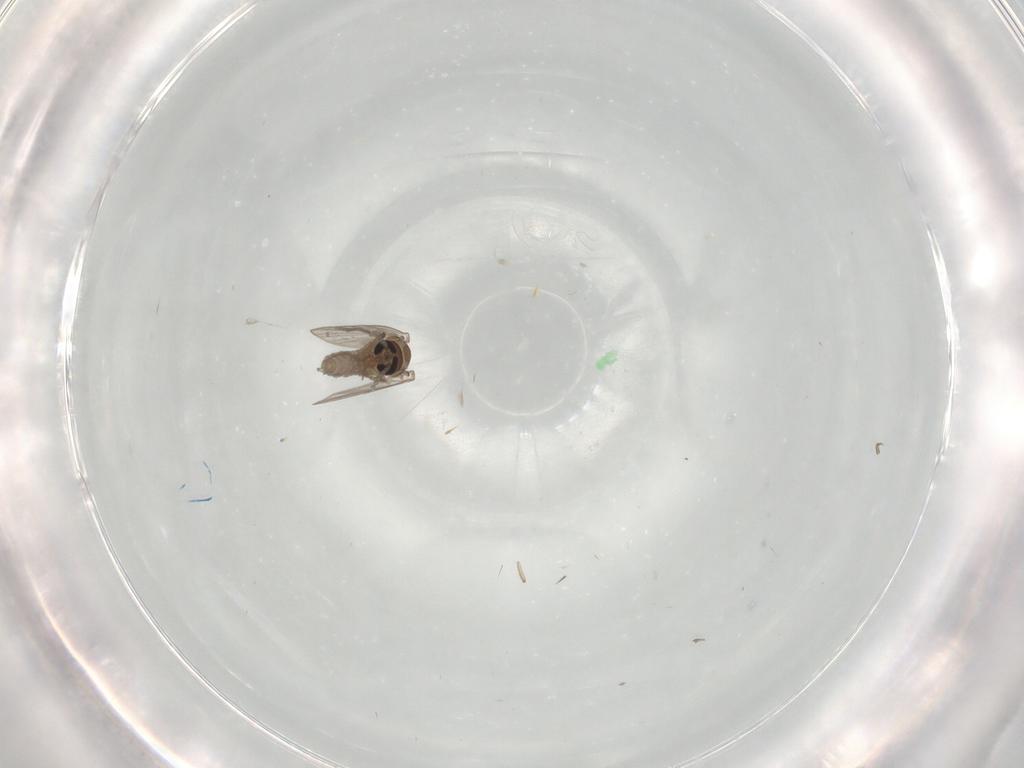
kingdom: Animalia
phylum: Arthropoda
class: Insecta
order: Diptera
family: Psychodidae
